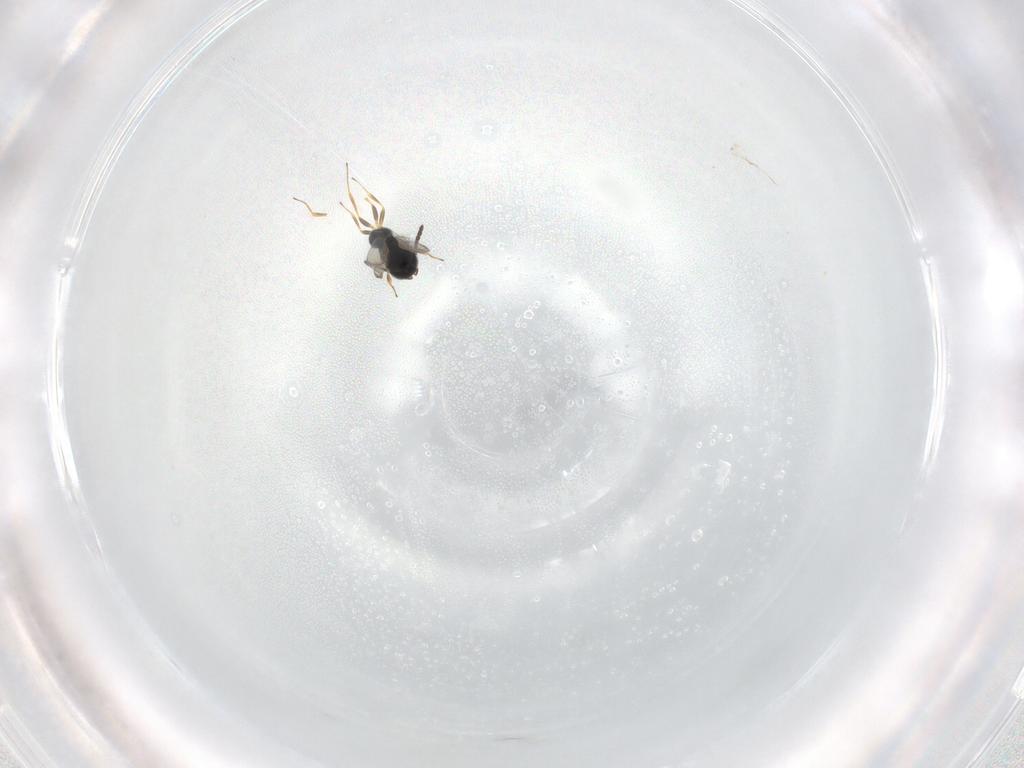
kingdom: Animalia
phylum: Arthropoda
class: Insecta
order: Hymenoptera
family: Scelionidae
